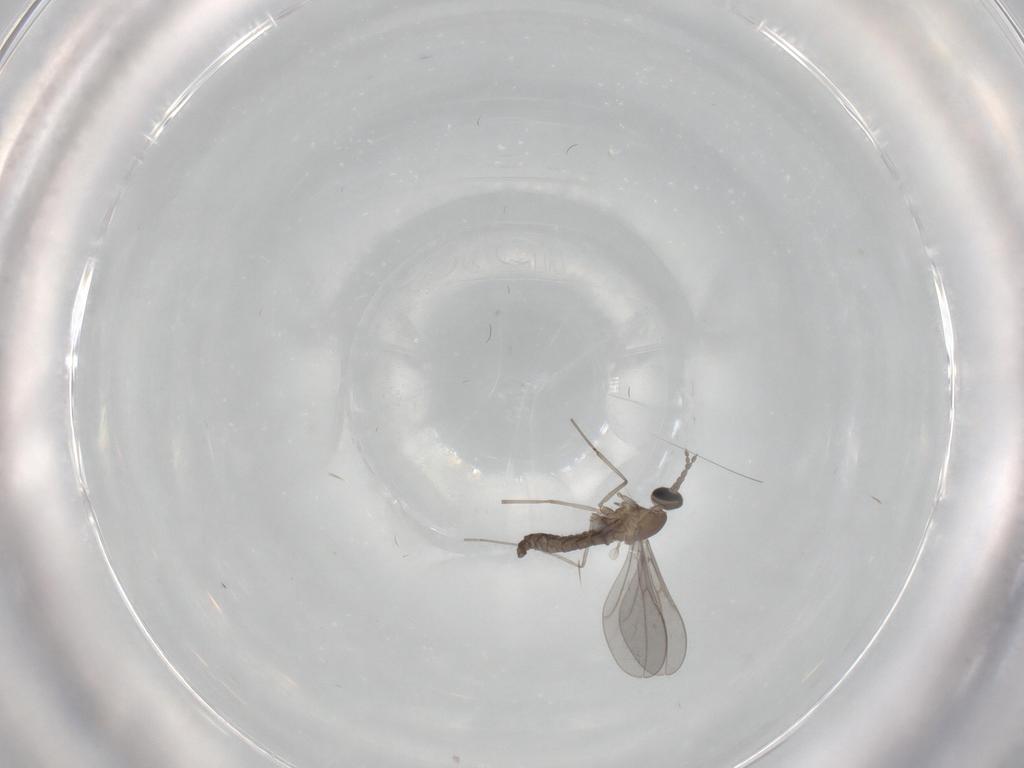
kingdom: Animalia
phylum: Arthropoda
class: Insecta
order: Diptera
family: Cecidomyiidae
